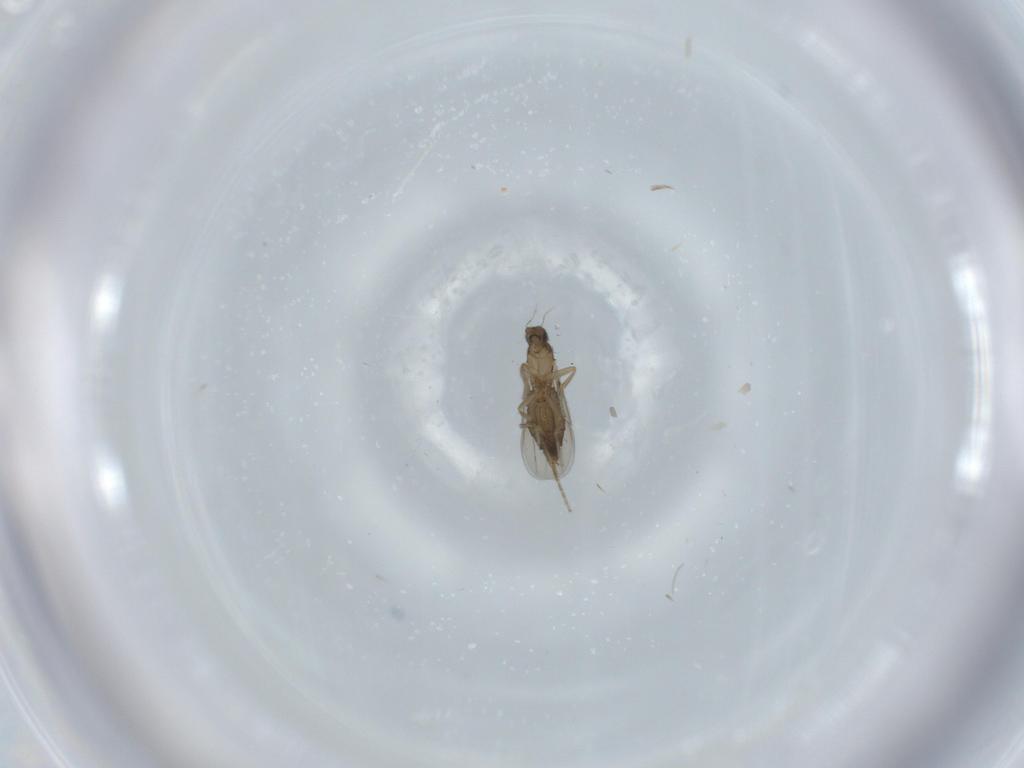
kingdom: Animalia
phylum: Arthropoda
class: Insecta
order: Diptera
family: Phoridae
